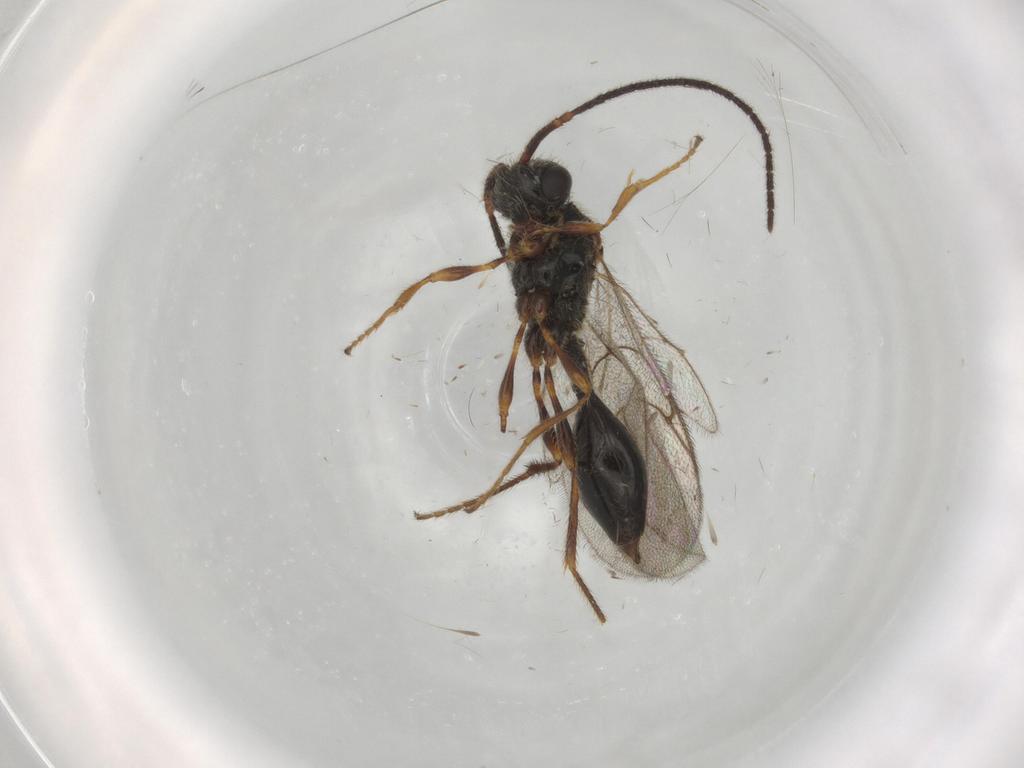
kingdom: Animalia
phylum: Arthropoda
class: Insecta
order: Hymenoptera
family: Diapriidae
